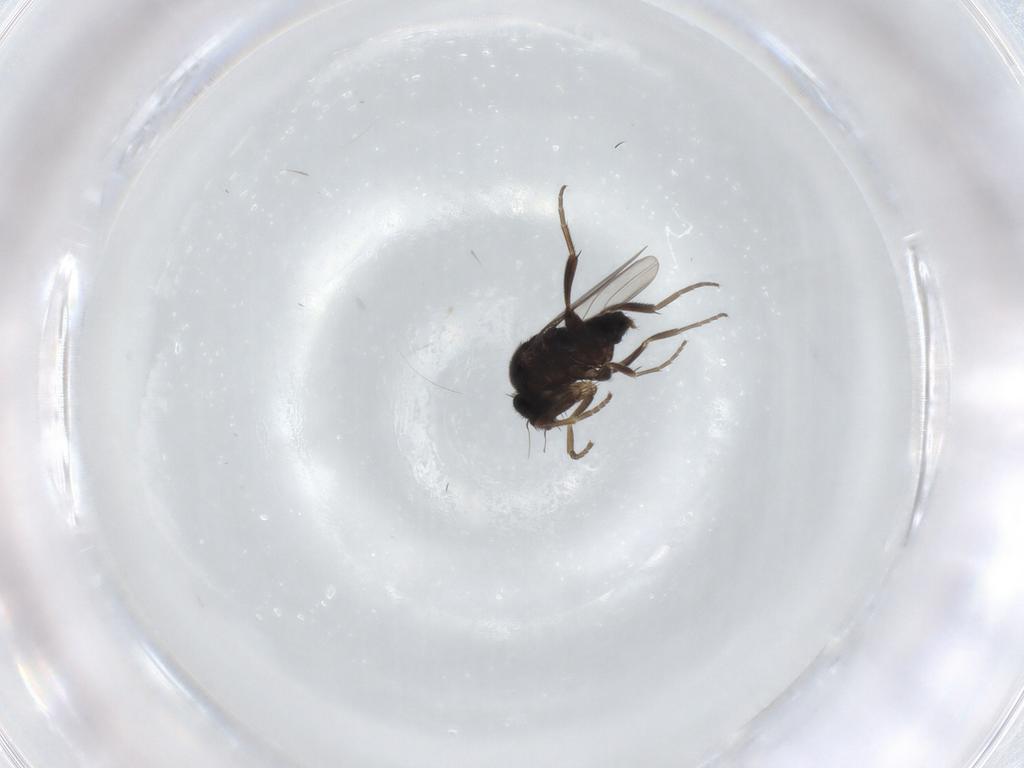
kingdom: Animalia
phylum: Arthropoda
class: Insecta
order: Diptera
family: Phoridae
